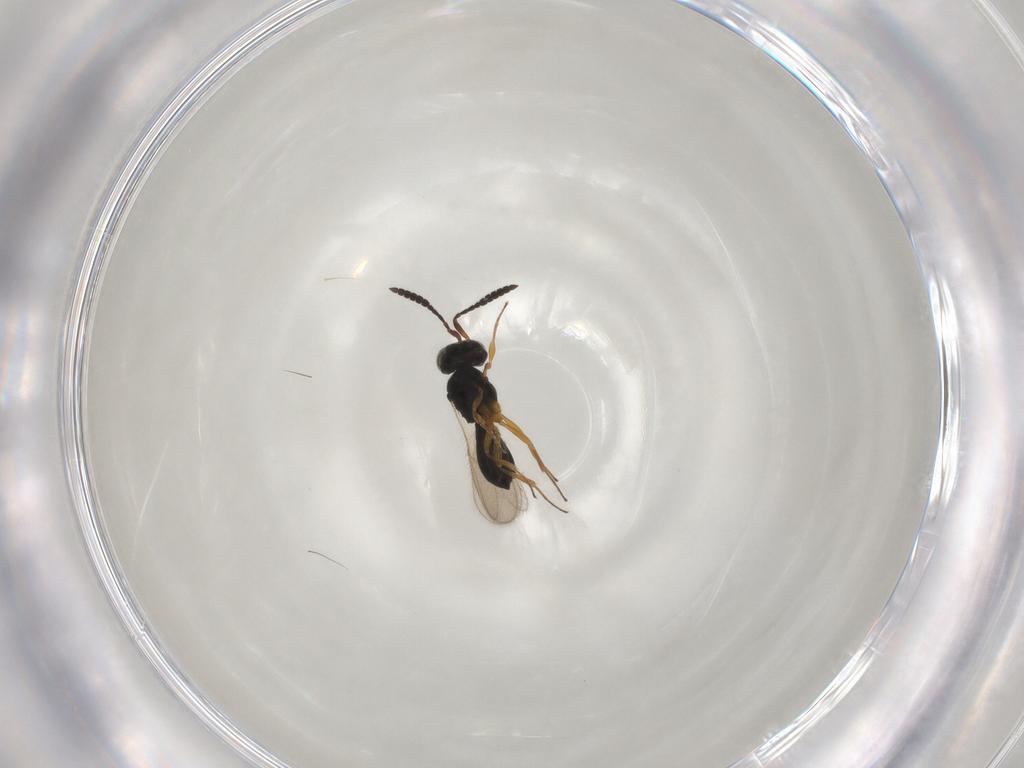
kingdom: Animalia
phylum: Arthropoda
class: Insecta
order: Hymenoptera
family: Scelionidae
